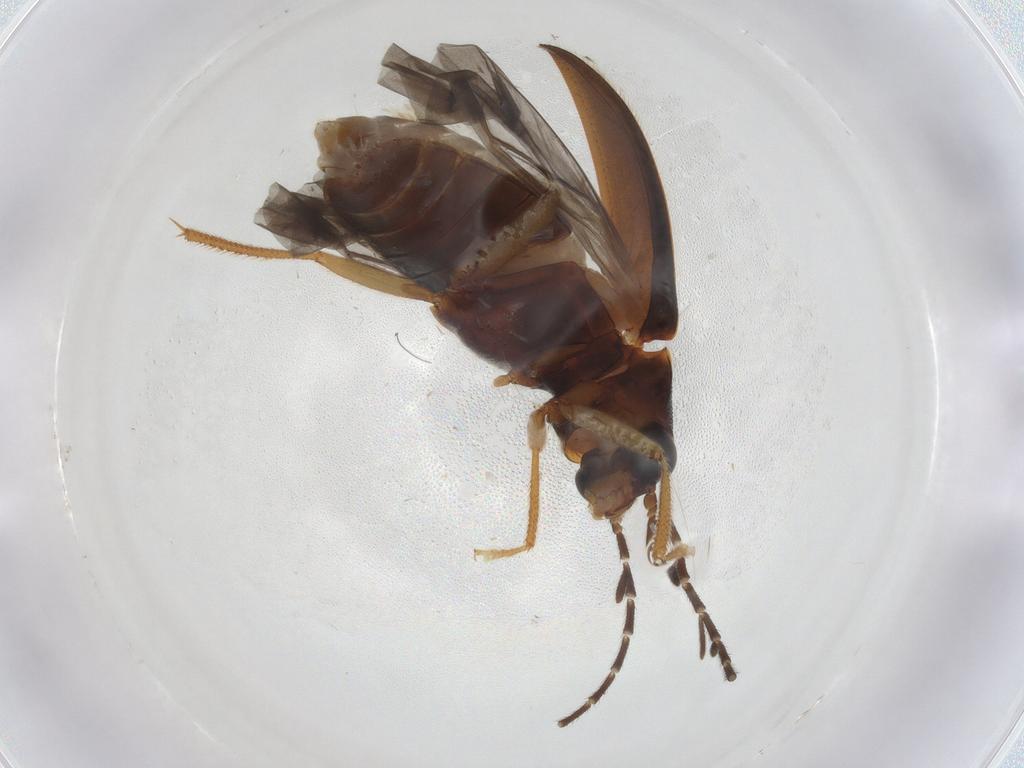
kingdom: Animalia
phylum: Arthropoda
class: Insecta
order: Coleoptera
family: Ptilodactylidae
